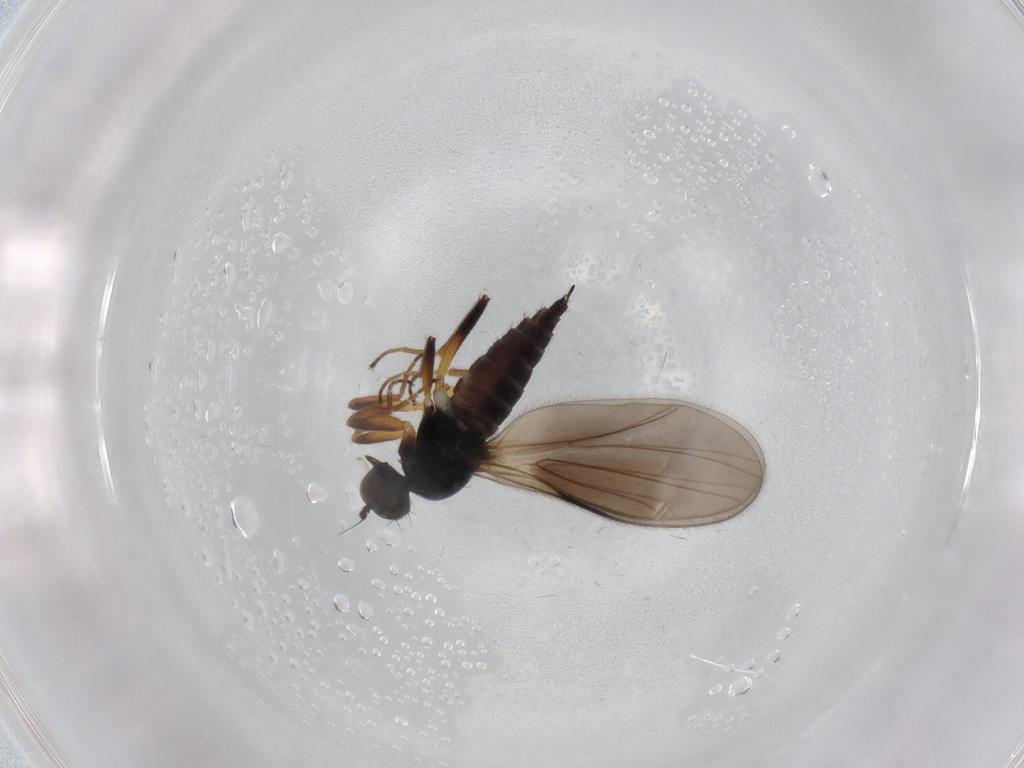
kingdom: Animalia
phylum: Arthropoda
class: Insecta
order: Diptera
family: Hybotidae
